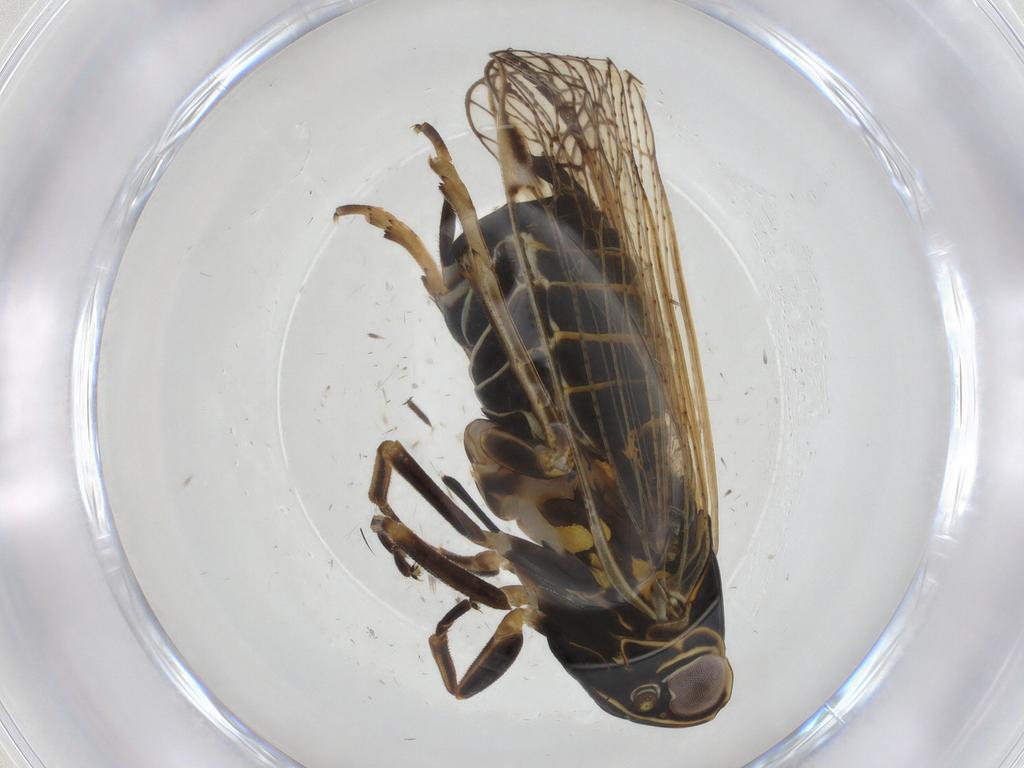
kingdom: Animalia
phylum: Arthropoda
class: Insecta
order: Hemiptera
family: Cixiidae
